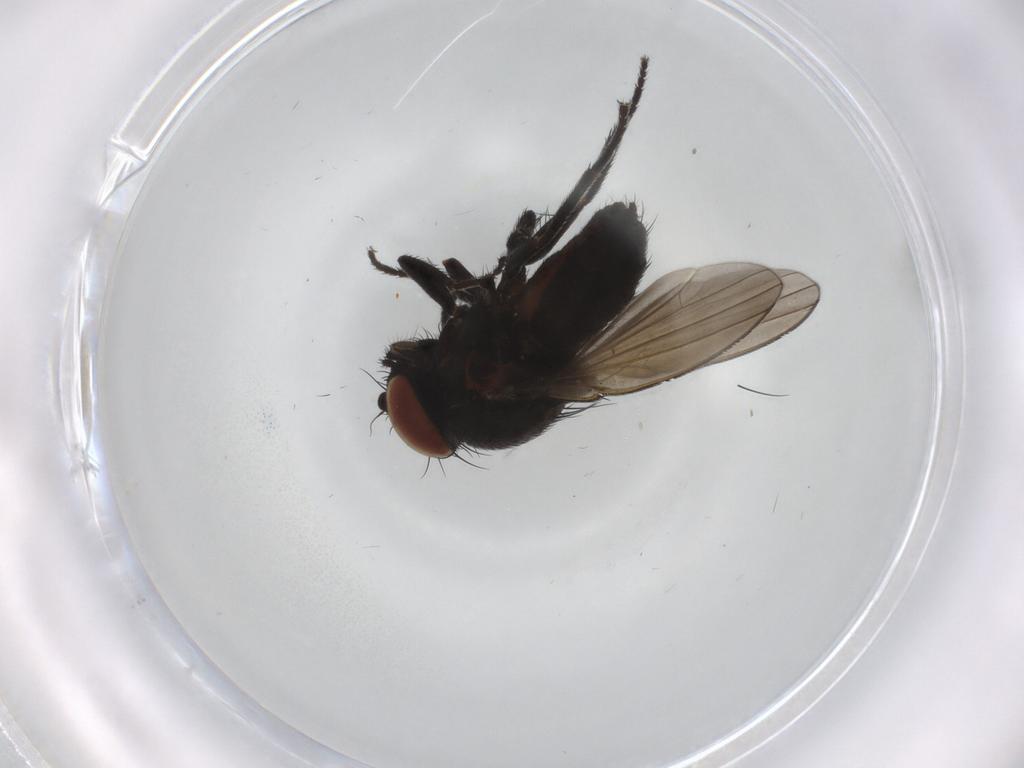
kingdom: Animalia
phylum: Arthropoda
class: Insecta
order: Diptera
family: Milichiidae
